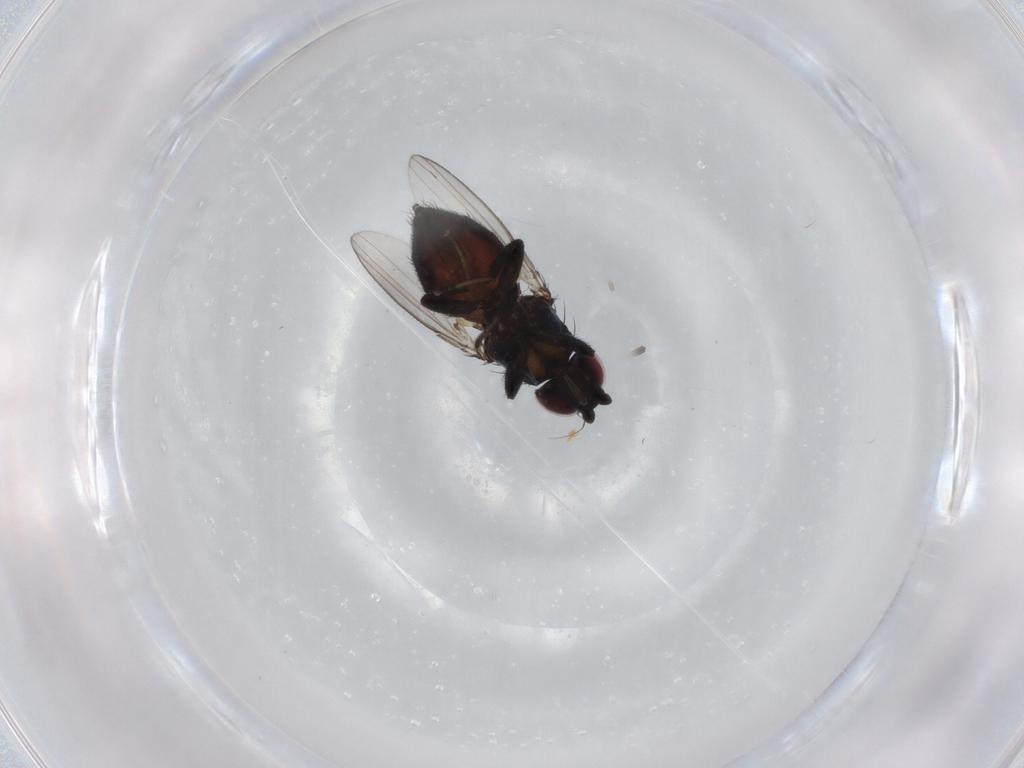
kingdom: Animalia
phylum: Arthropoda
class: Insecta
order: Diptera
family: Milichiidae
